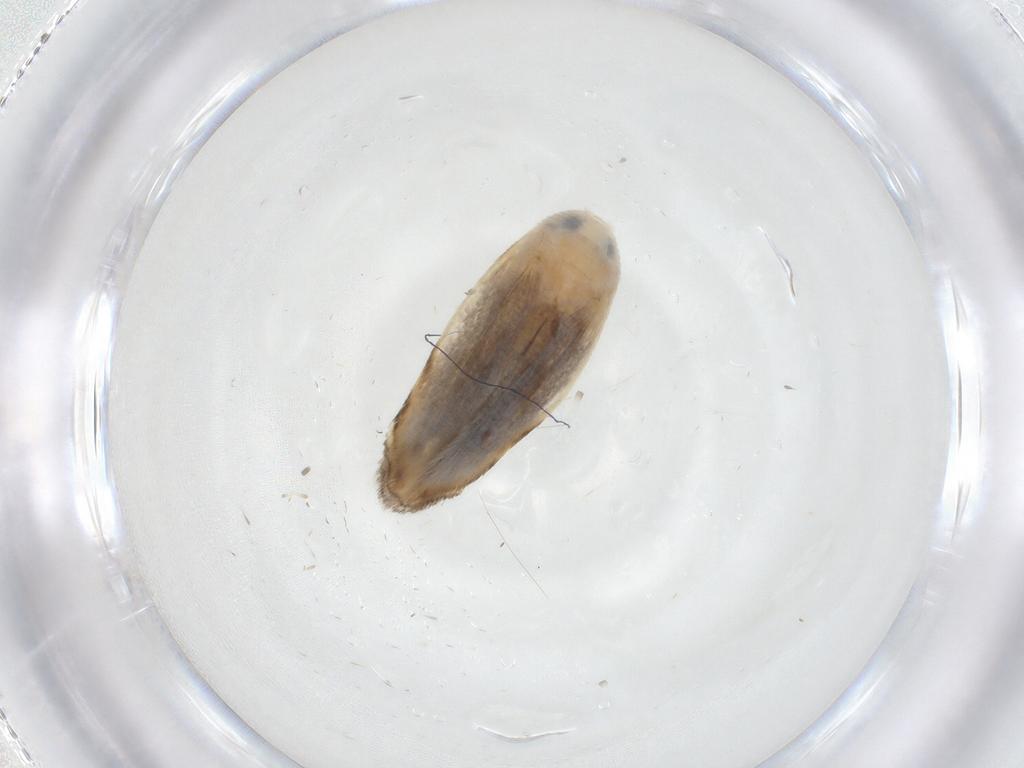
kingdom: Animalia
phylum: Arthropoda
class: Insecta
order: Lepidoptera
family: Opostegidae
